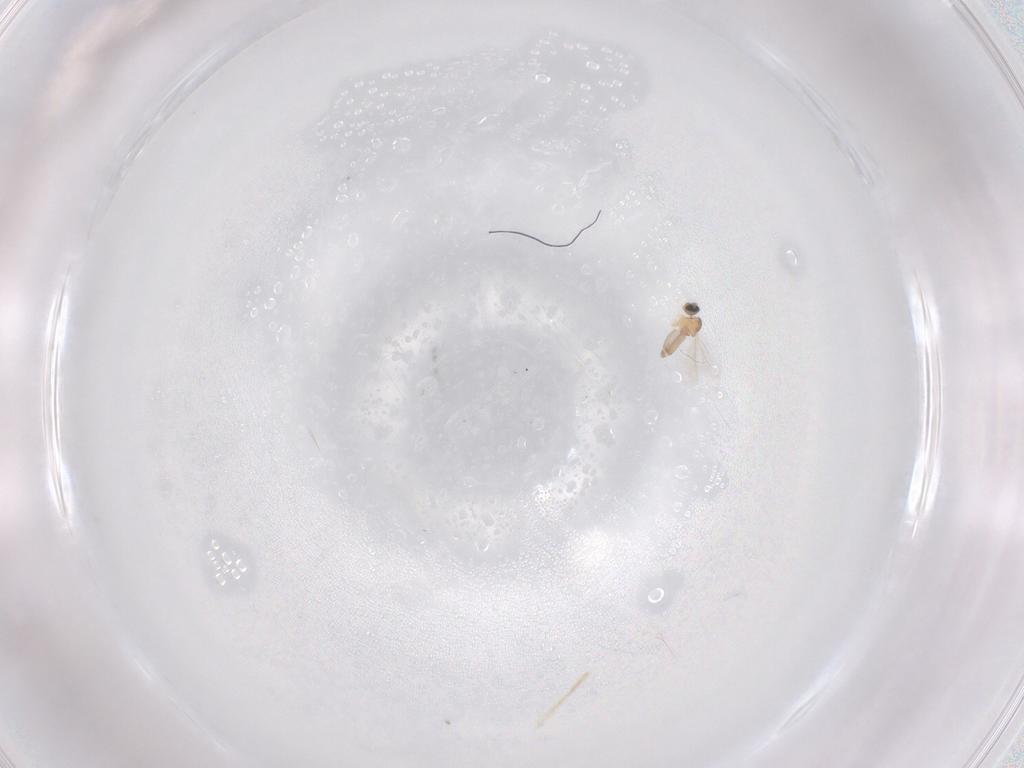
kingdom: Animalia
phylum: Arthropoda
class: Insecta
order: Diptera
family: Cecidomyiidae
